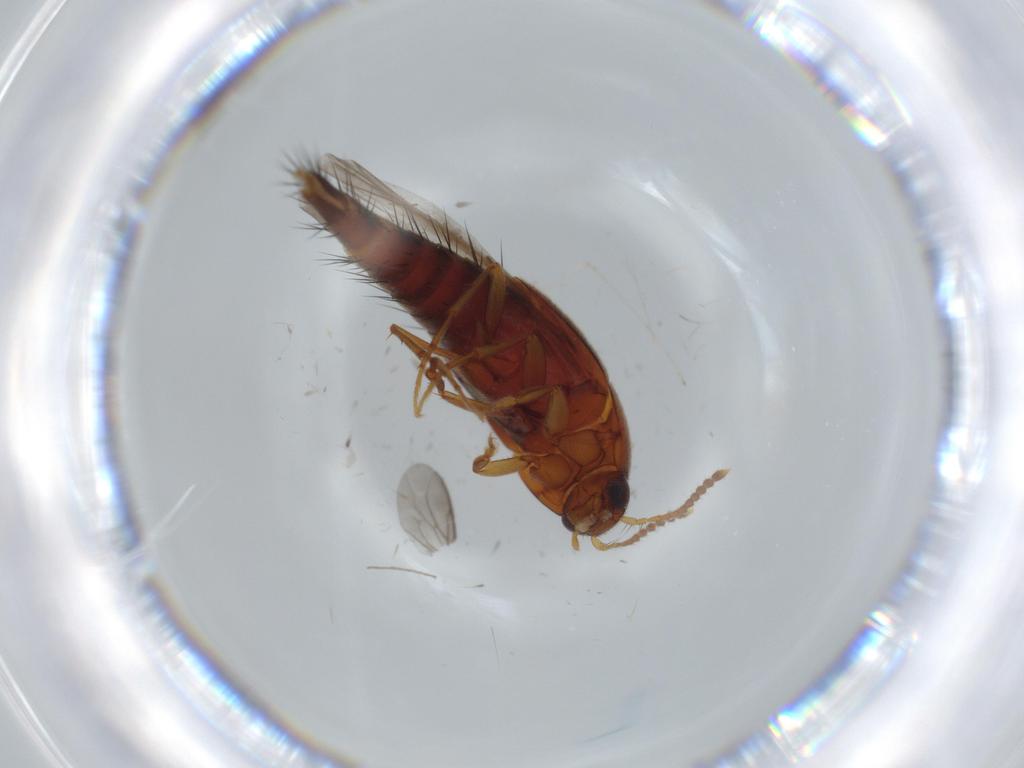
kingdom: Animalia
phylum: Arthropoda
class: Insecta
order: Coleoptera
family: Staphylinidae
